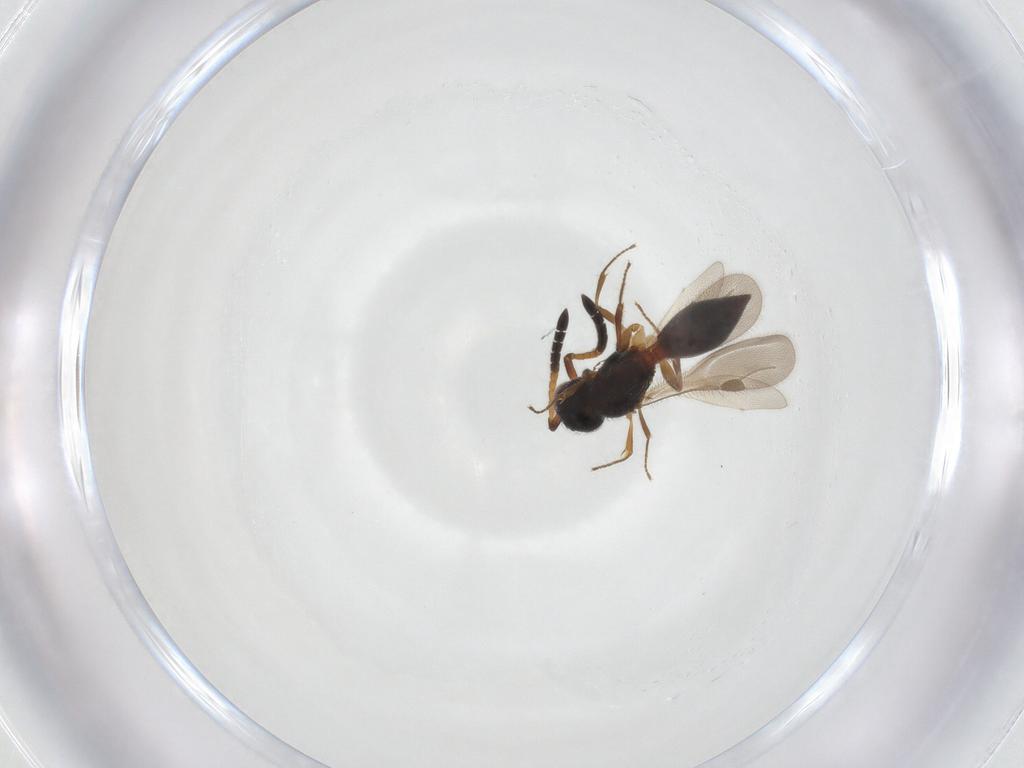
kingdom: Animalia
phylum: Arthropoda
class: Insecta
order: Hymenoptera
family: Megaspilidae
